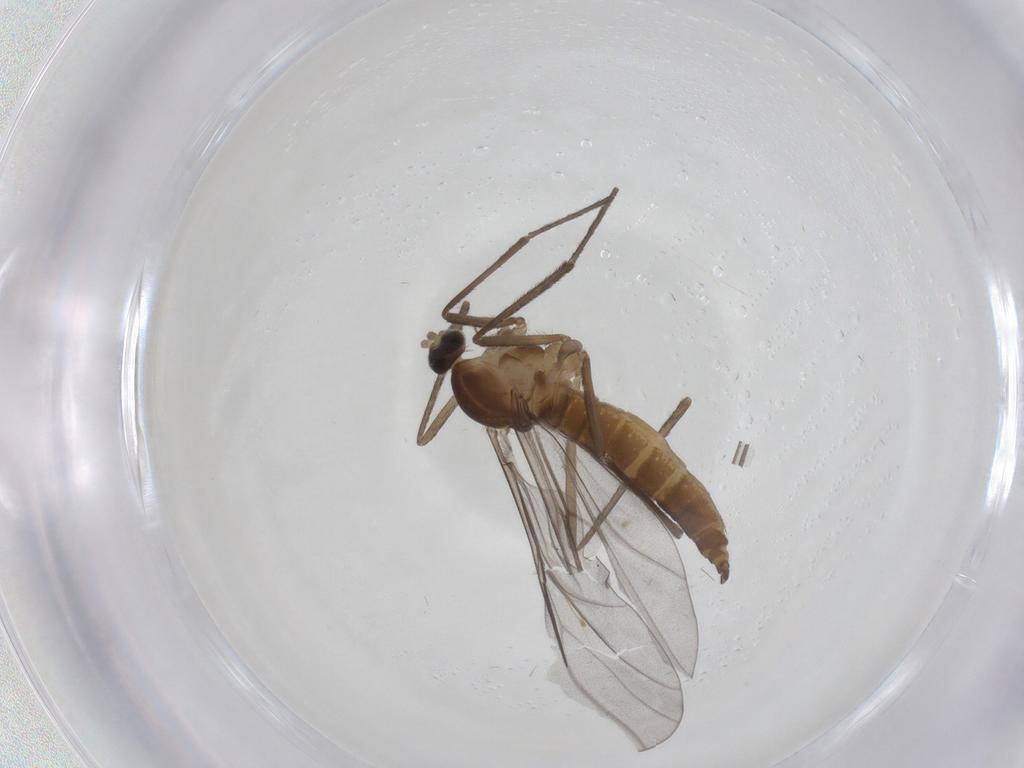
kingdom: Animalia
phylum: Arthropoda
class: Insecta
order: Diptera
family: Cecidomyiidae
